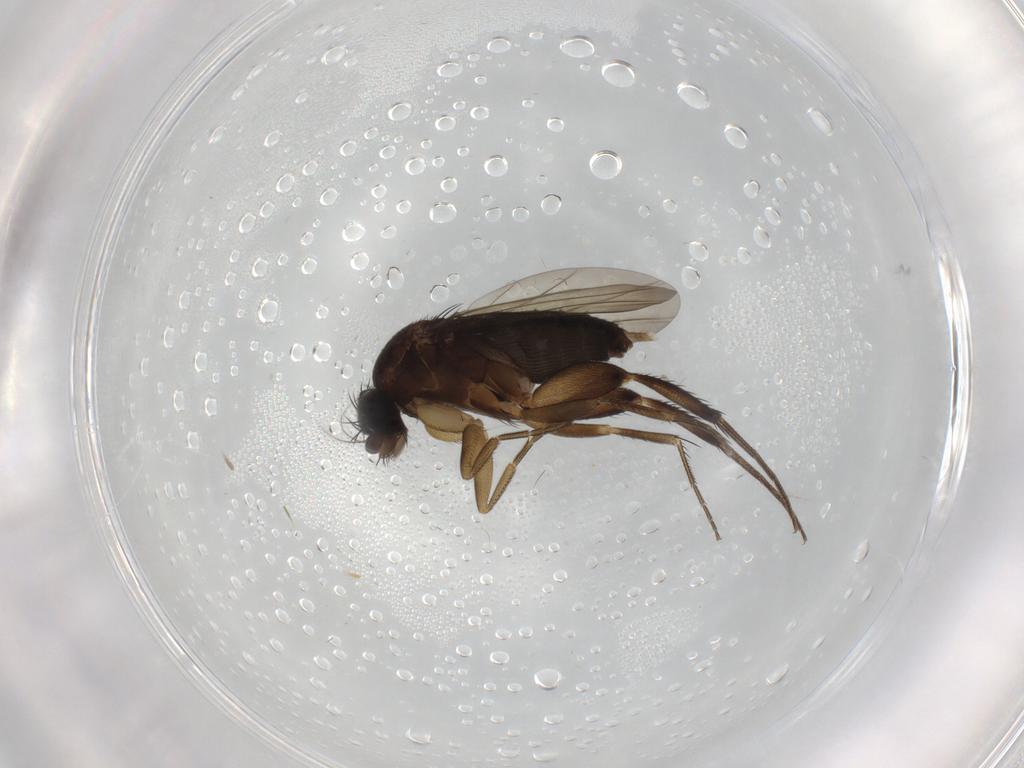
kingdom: Animalia
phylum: Arthropoda
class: Insecta
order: Diptera
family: Phoridae
